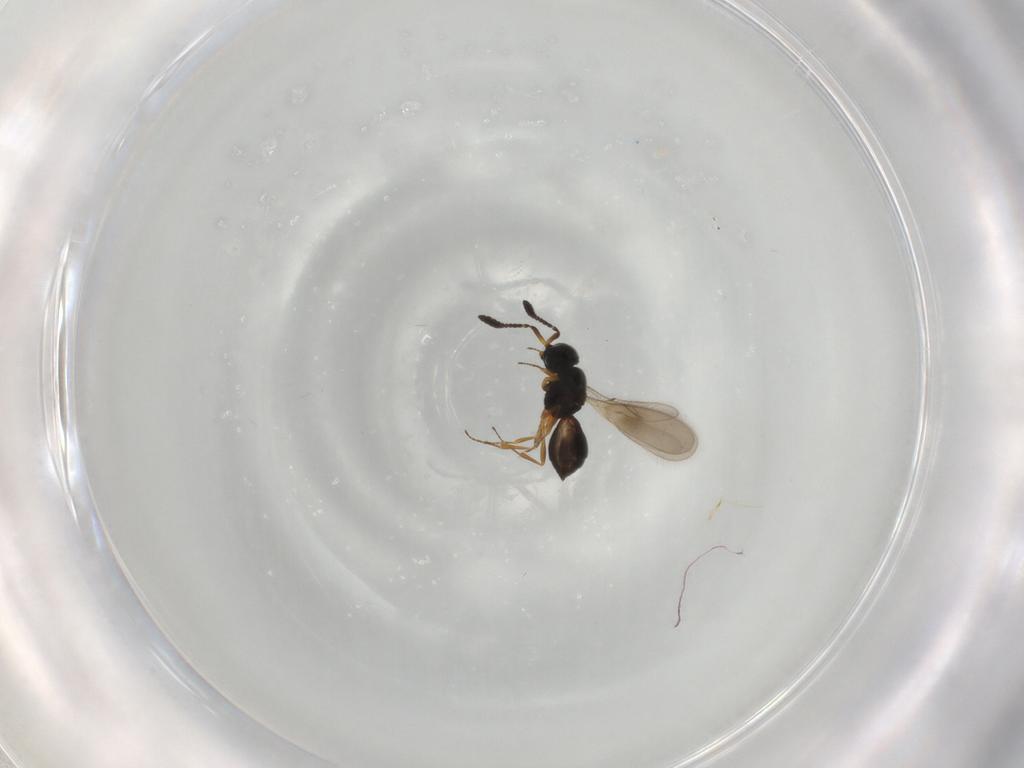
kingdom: Animalia
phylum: Arthropoda
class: Insecta
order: Hymenoptera
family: Scelionidae
